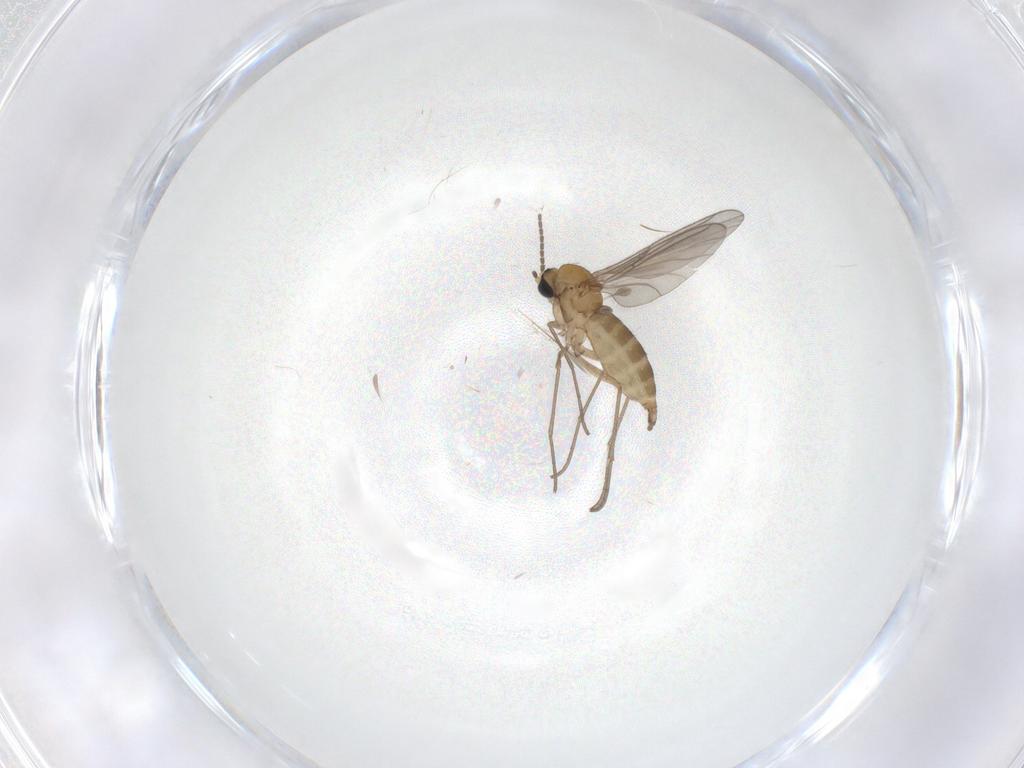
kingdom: Animalia
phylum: Arthropoda
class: Insecta
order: Diptera
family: Sciaridae
